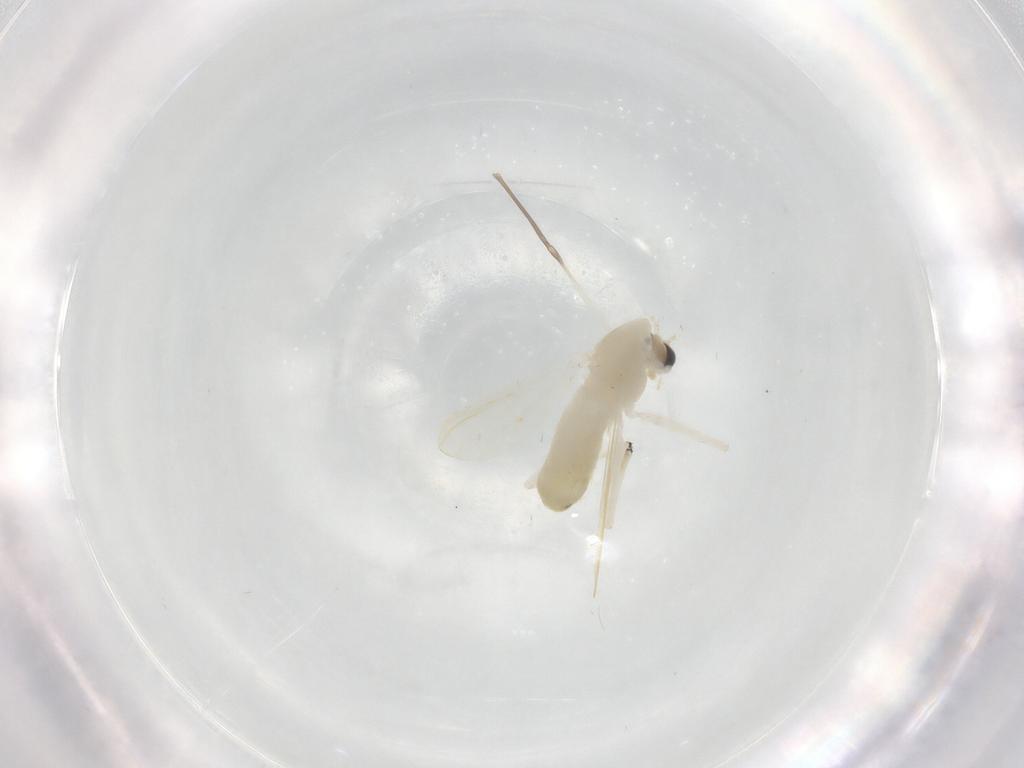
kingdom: Animalia
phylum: Arthropoda
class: Insecta
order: Diptera
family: Chironomidae
